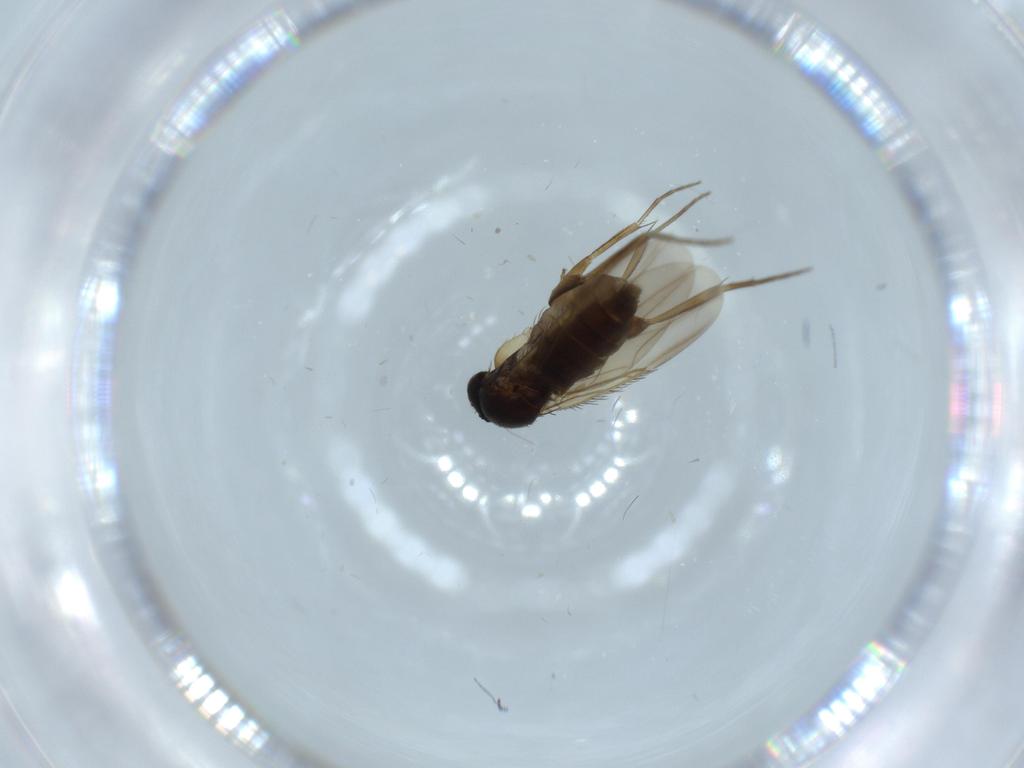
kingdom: Animalia
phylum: Arthropoda
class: Insecta
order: Diptera
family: Phoridae
